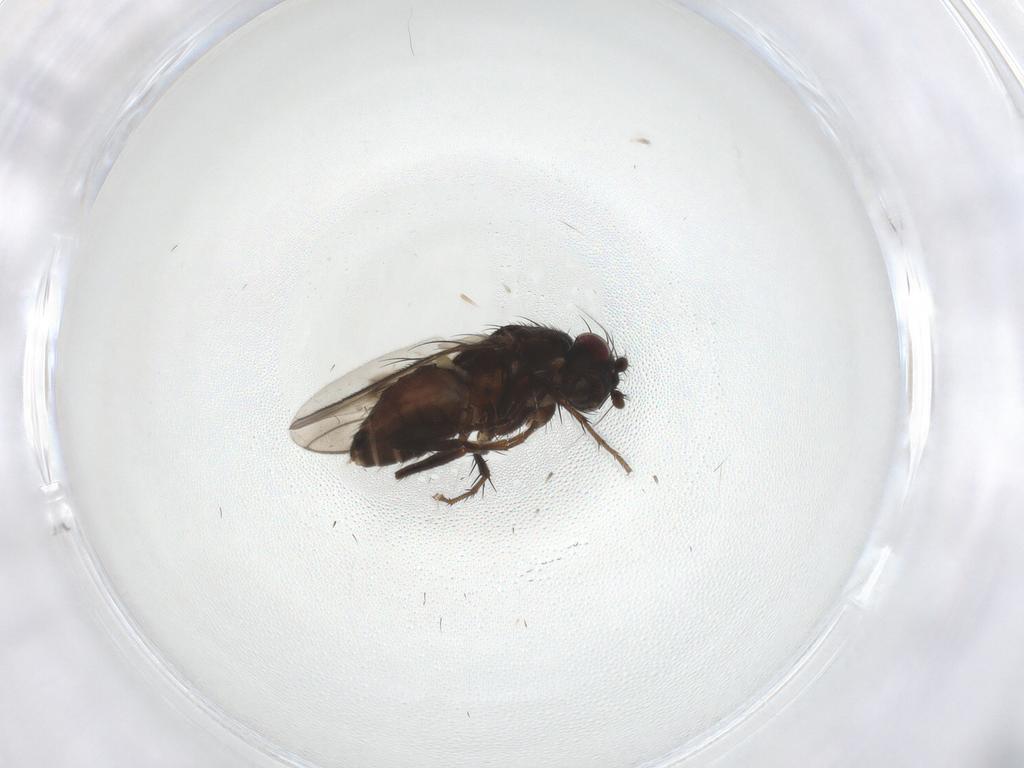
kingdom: Animalia
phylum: Arthropoda
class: Insecta
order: Diptera
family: Sphaeroceridae
